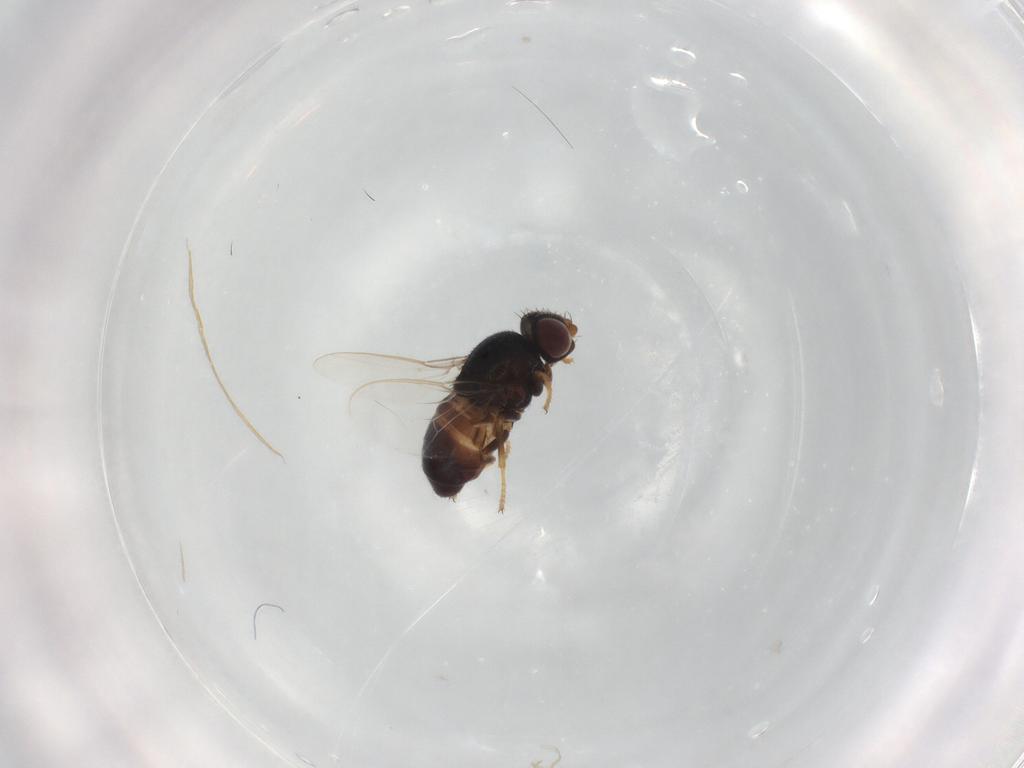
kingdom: Animalia
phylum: Arthropoda
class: Insecta
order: Diptera
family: Chloropidae
